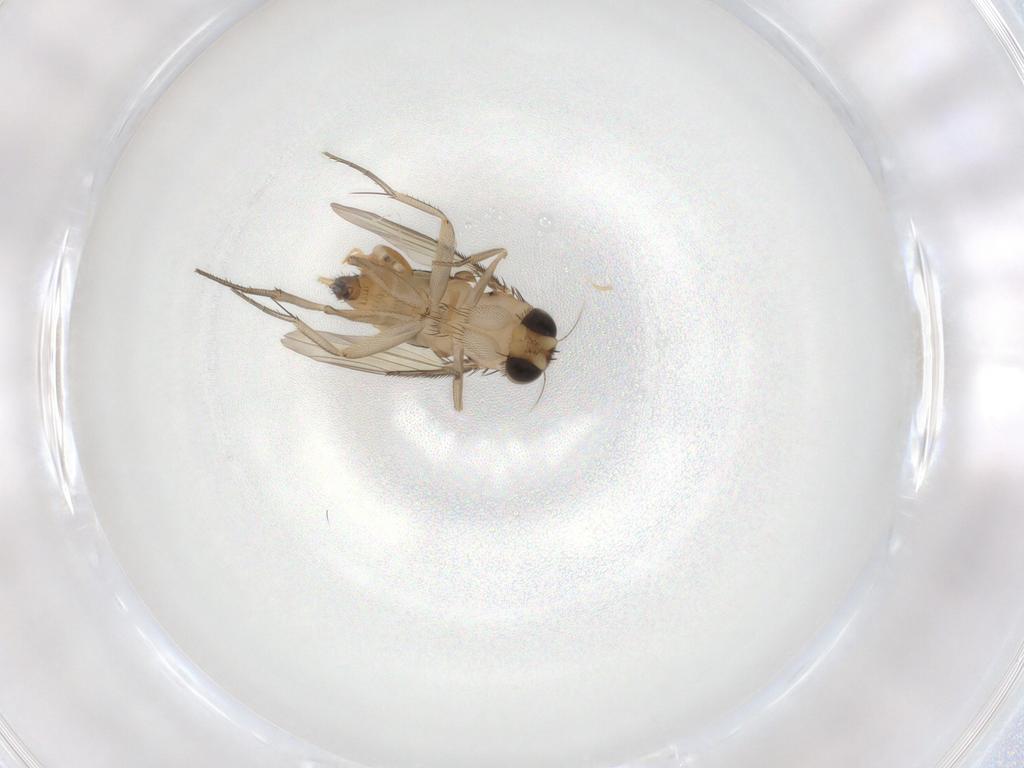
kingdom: Animalia
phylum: Arthropoda
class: Insecta
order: Diptera
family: Phoridae
